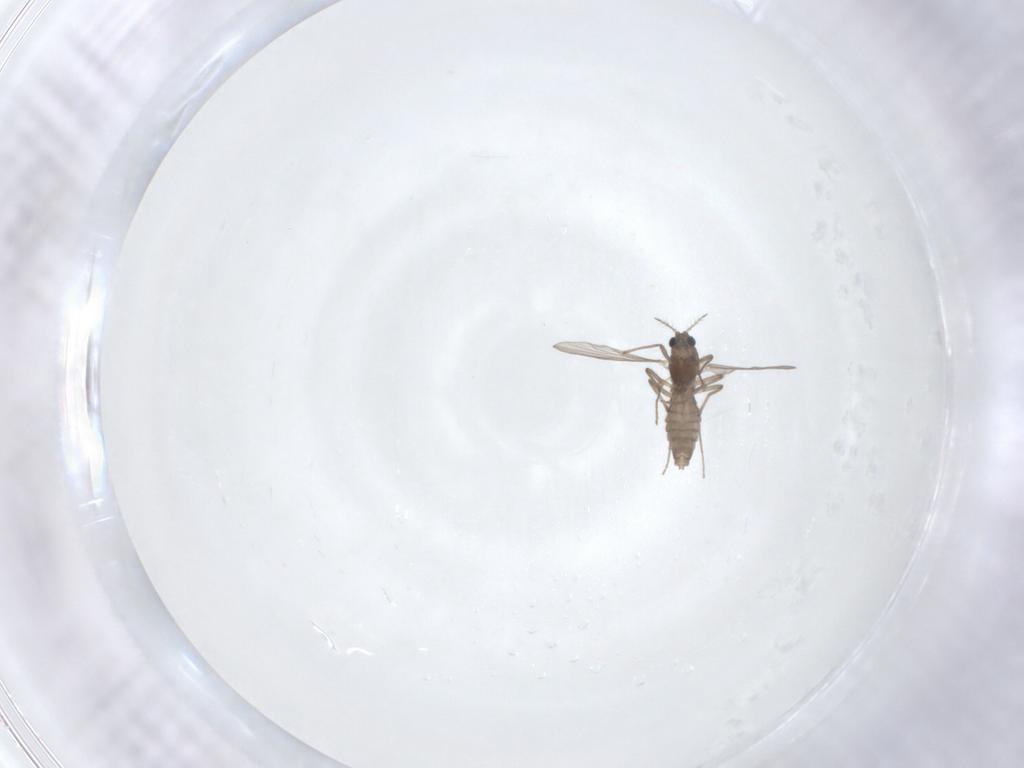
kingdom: Animalia
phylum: Arthropoda
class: Insecta
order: Diptera
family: Chironomidae
